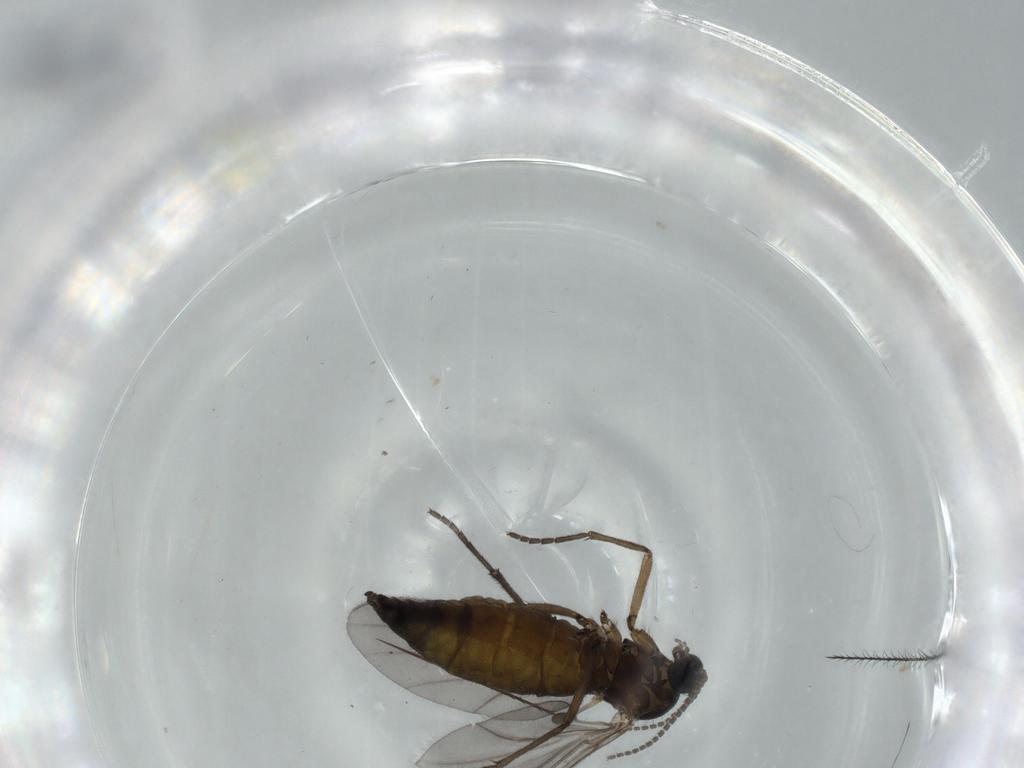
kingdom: Animalia
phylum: Arthropoda
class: Insecta
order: Diptera
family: Sciaridae
